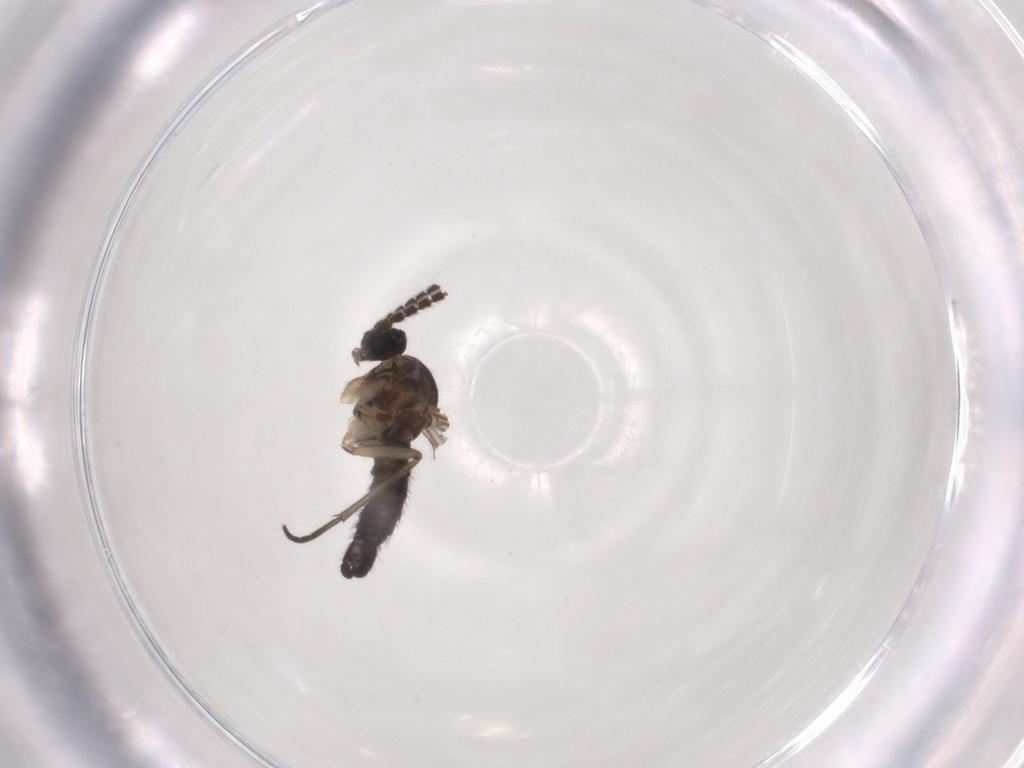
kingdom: Animalia
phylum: Arthropoda
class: Insecta
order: Diptera
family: Sciaridae
